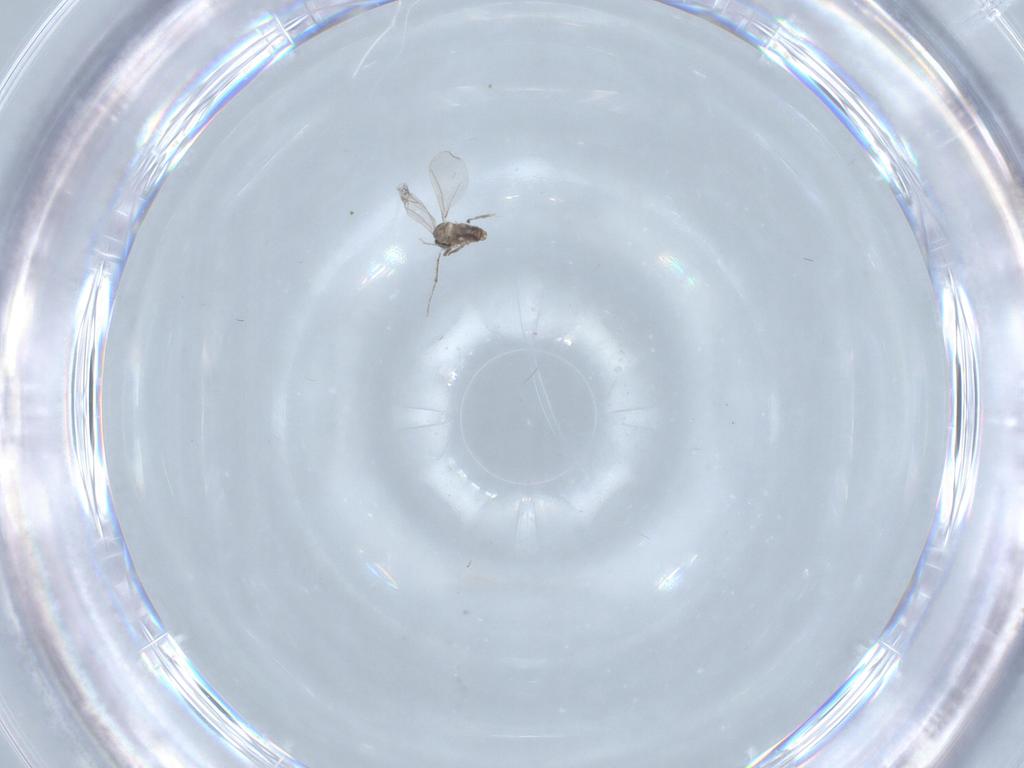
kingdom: Animalia
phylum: Arthropoda
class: Insecta
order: Diptera
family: Cecidomyiidae
